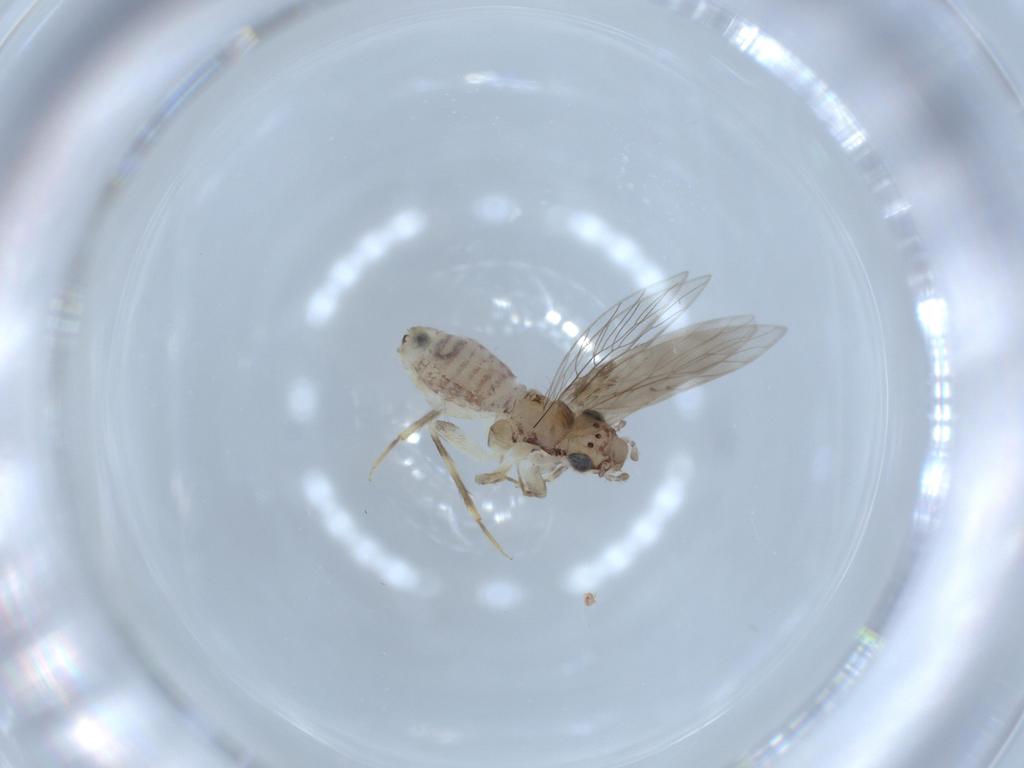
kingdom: Animalia
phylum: Arthropoda
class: Insecta
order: Psocodea
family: Lepidopsocidae
